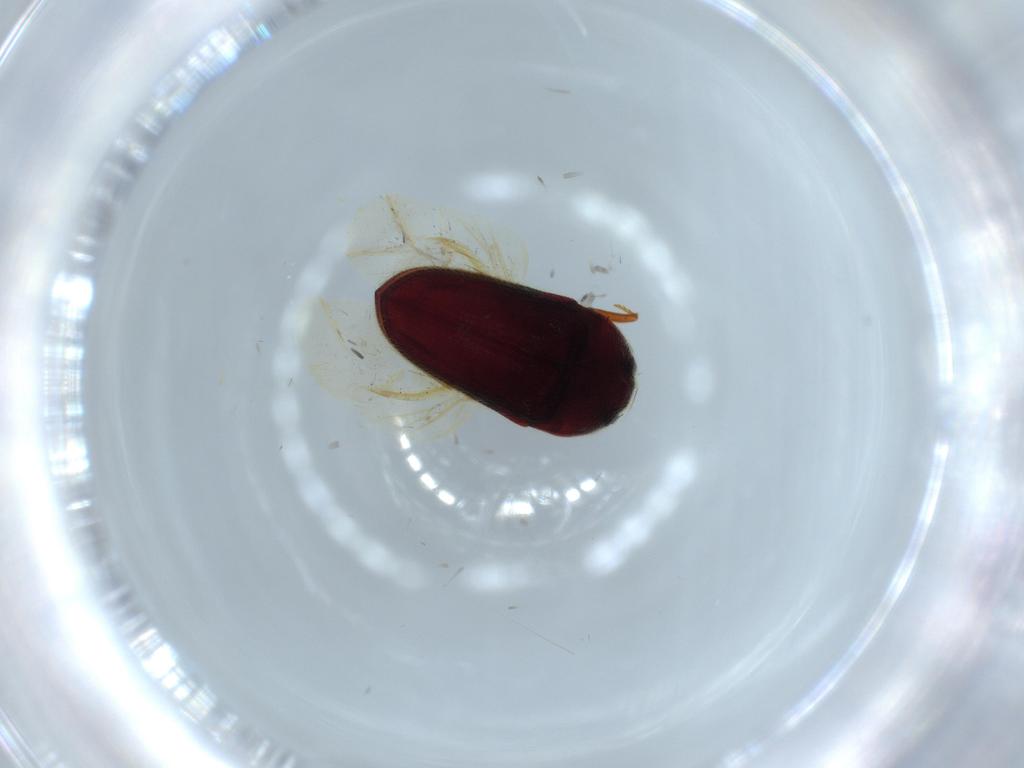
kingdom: Animalia
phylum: Arthropoda
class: Insecta
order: Coleoptera
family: Throscidae
